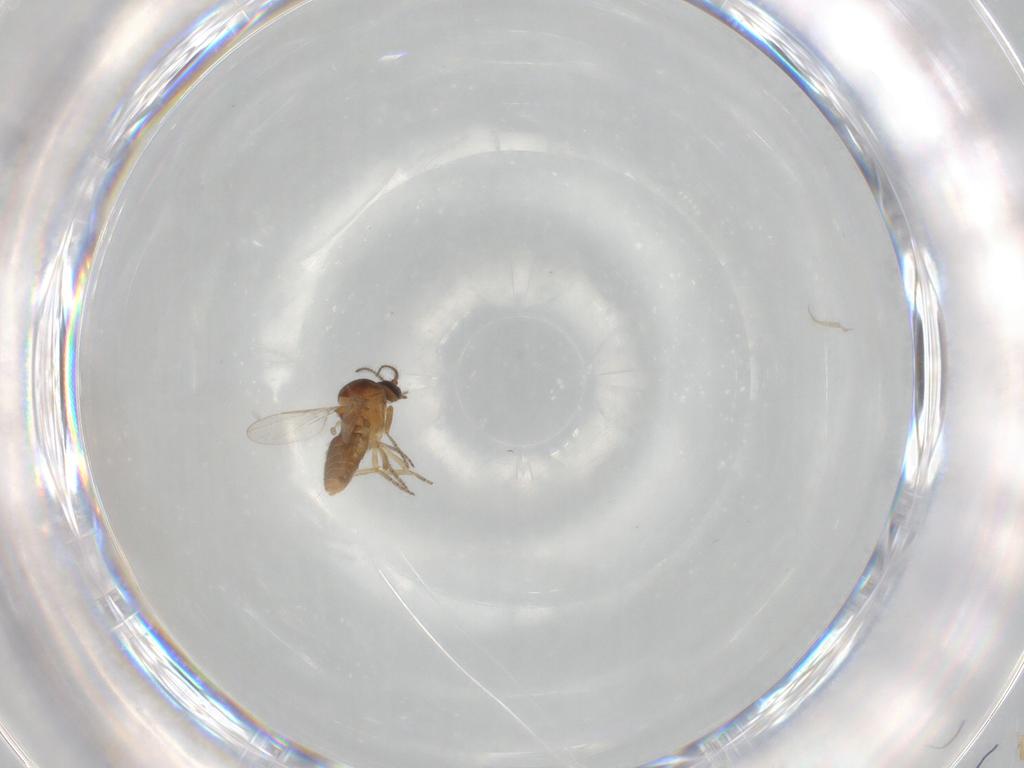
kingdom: Animalia
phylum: Arthropoda
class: Insecta
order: Diptera
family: Ceratopogonidae
